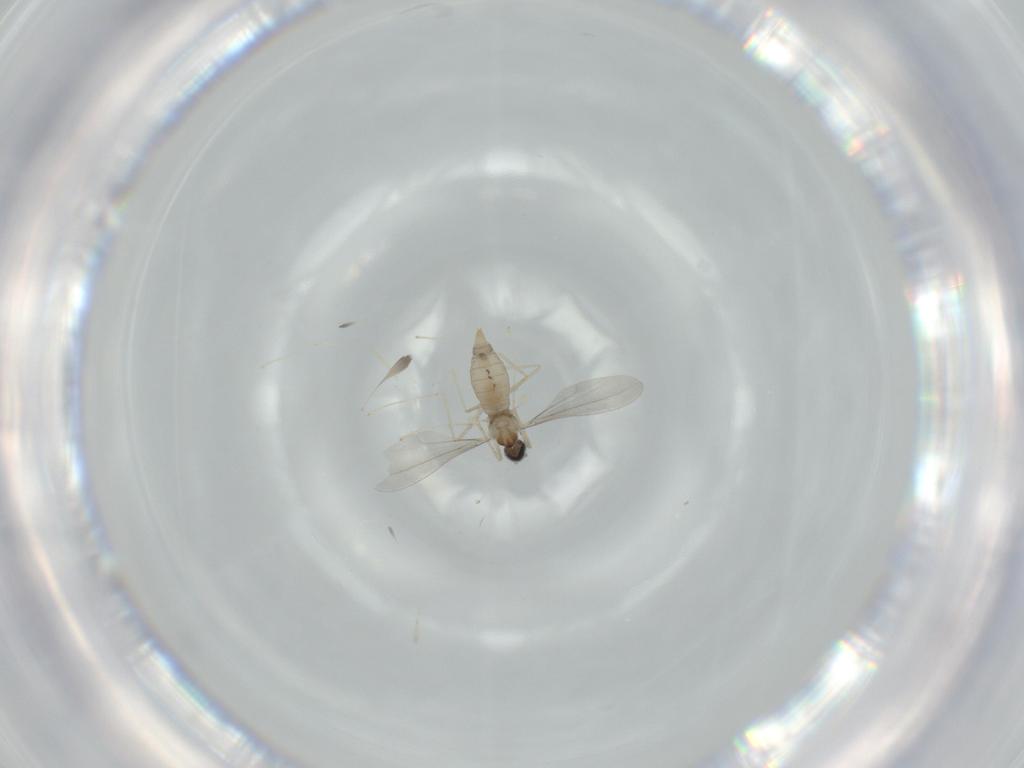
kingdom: Animalia
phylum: Arthropoda
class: Insecta
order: Diptera
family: Cecidomyiidae
